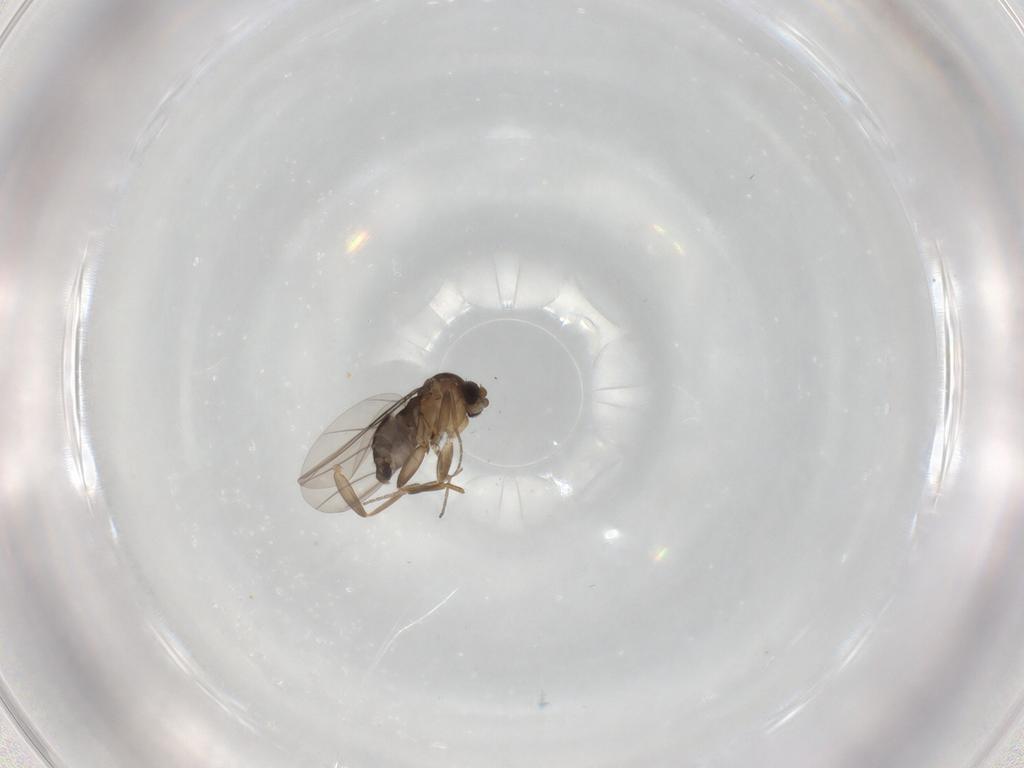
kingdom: Animalia
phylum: Arthropoda
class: Insecta
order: Diptera
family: Phoridae
